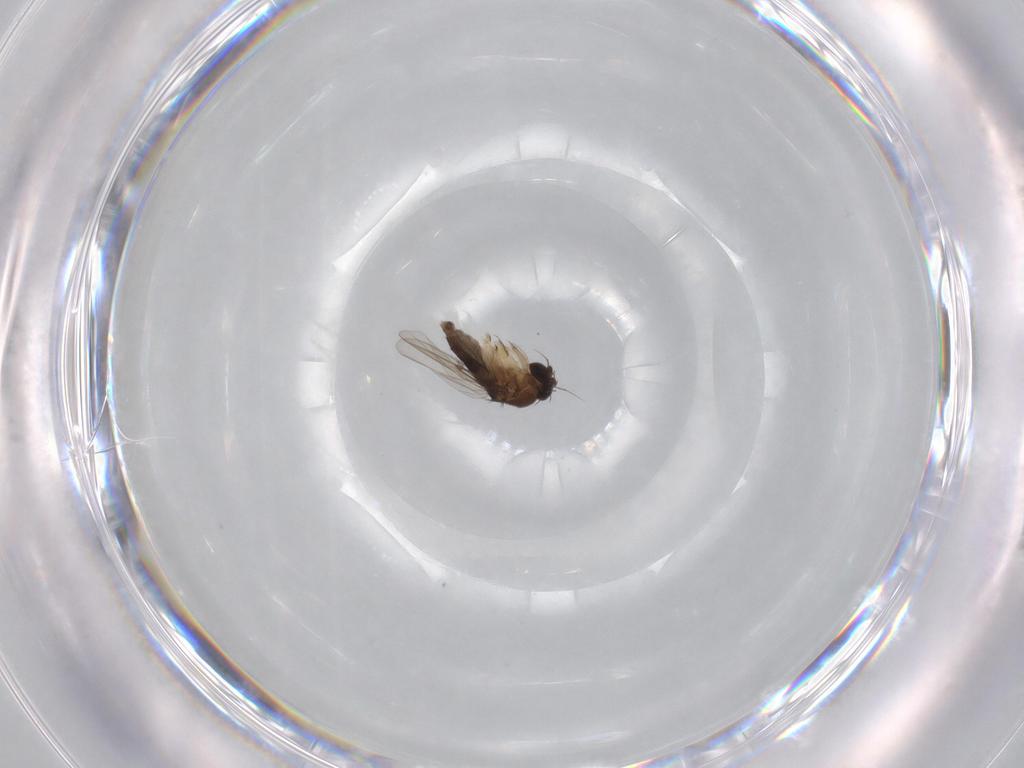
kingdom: Animalia
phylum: Arthropoda
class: Insecta
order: Diptera
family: Phoridae
